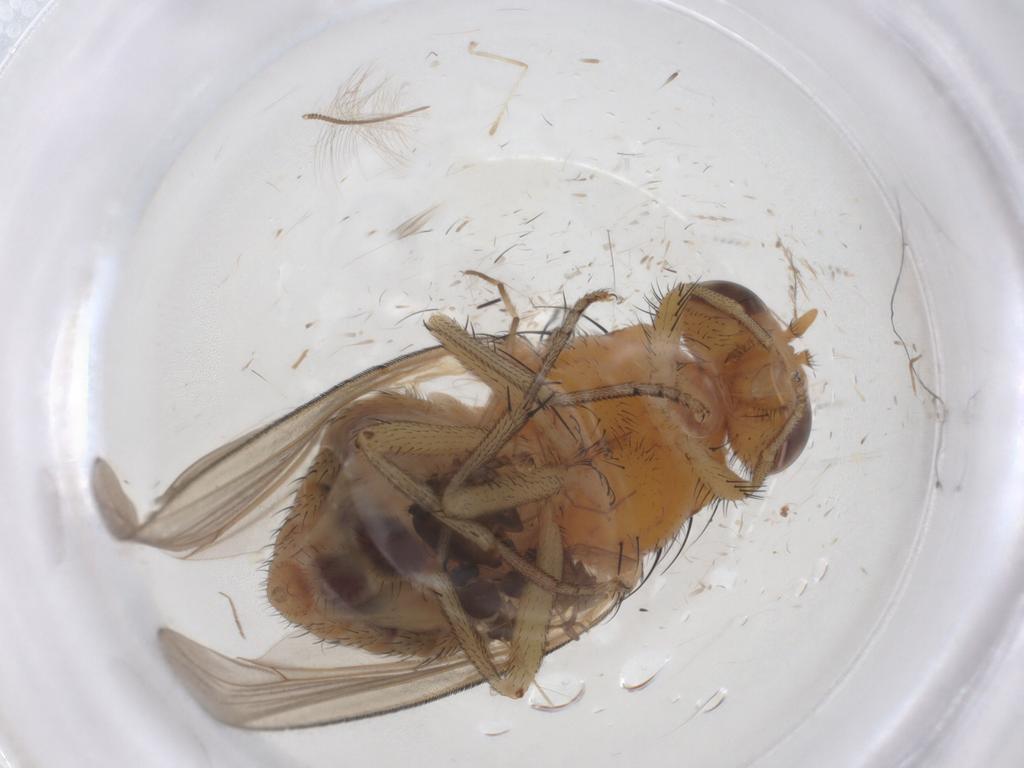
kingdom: Animalia
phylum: Arthropoda
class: Insecta
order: Diptera
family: Ceratopogonidae
